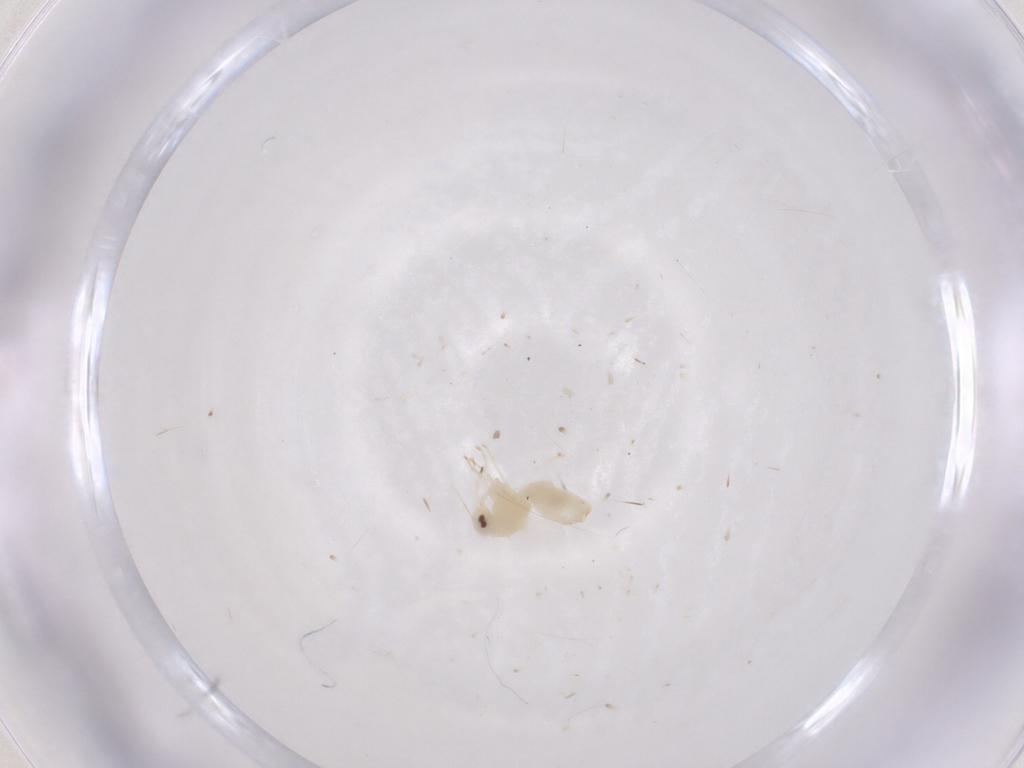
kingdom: Animalia
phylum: Arthropoda
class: Insecta
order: Hemiptera
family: Aleyrodidae
